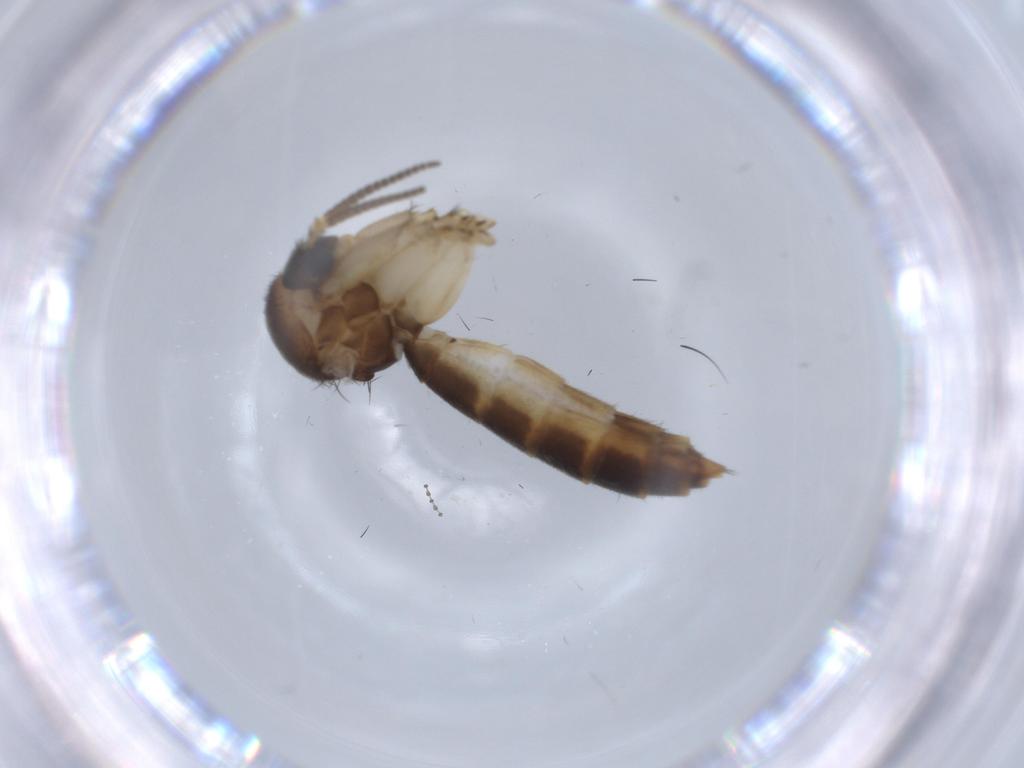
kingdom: Animalia
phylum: Arthropoda
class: Insecta
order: Diptera
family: Mycetophilidae
